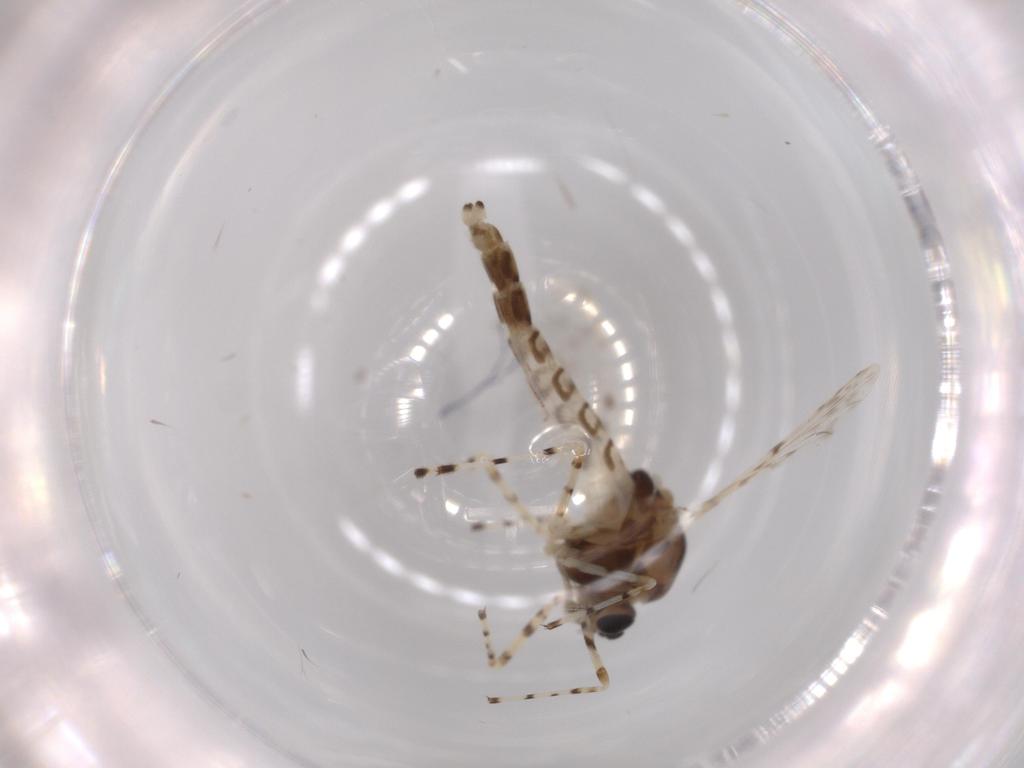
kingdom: Animalia
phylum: Arthropoda
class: Insecta
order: Diptera
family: Chironomidae
